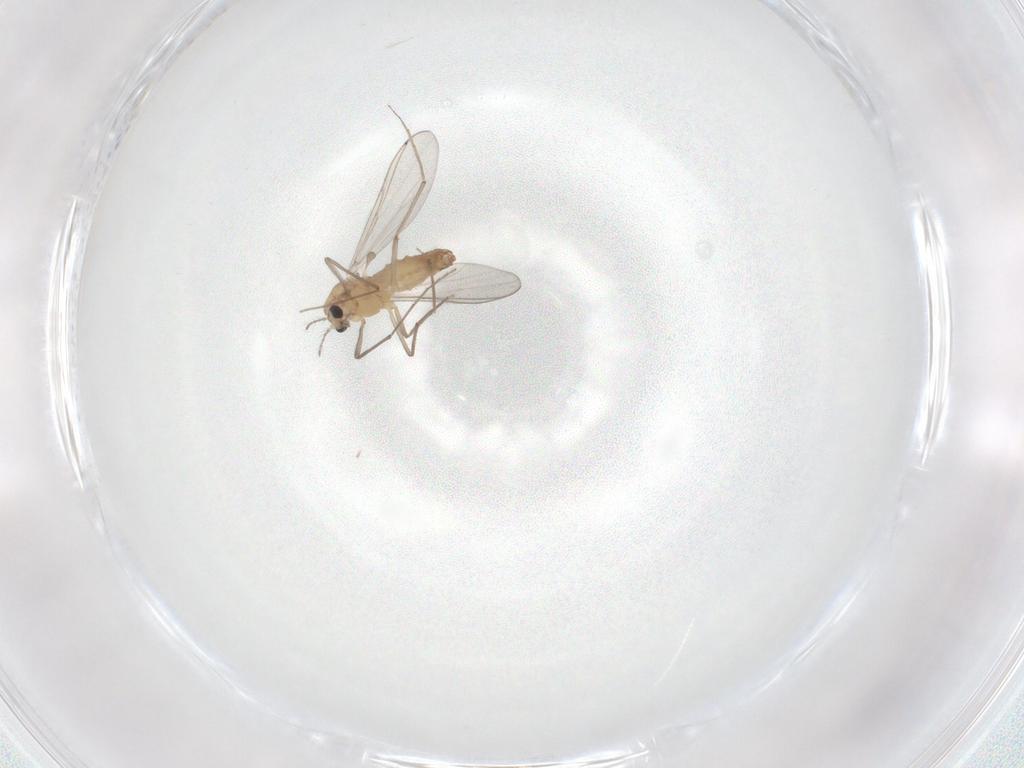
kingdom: Animalia
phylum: Arthropoda
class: Insecta
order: Diptera
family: Chironomidae
